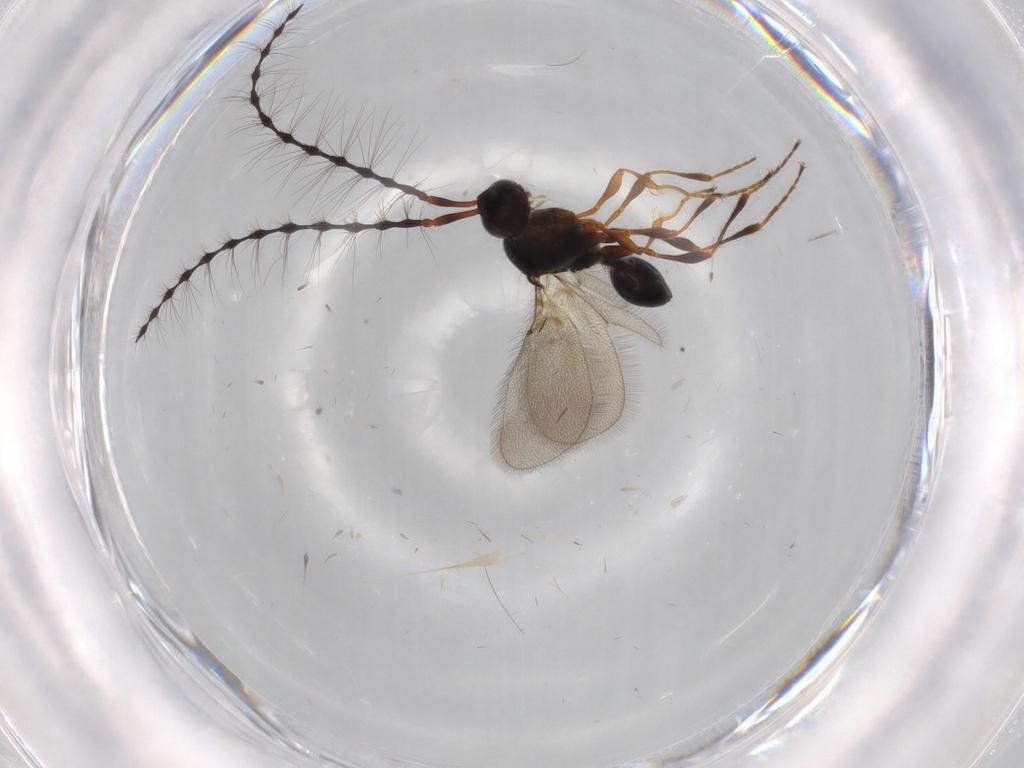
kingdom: Animalia
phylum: Arthropoda
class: Insecta
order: Hymenoptera
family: Diapriidae
